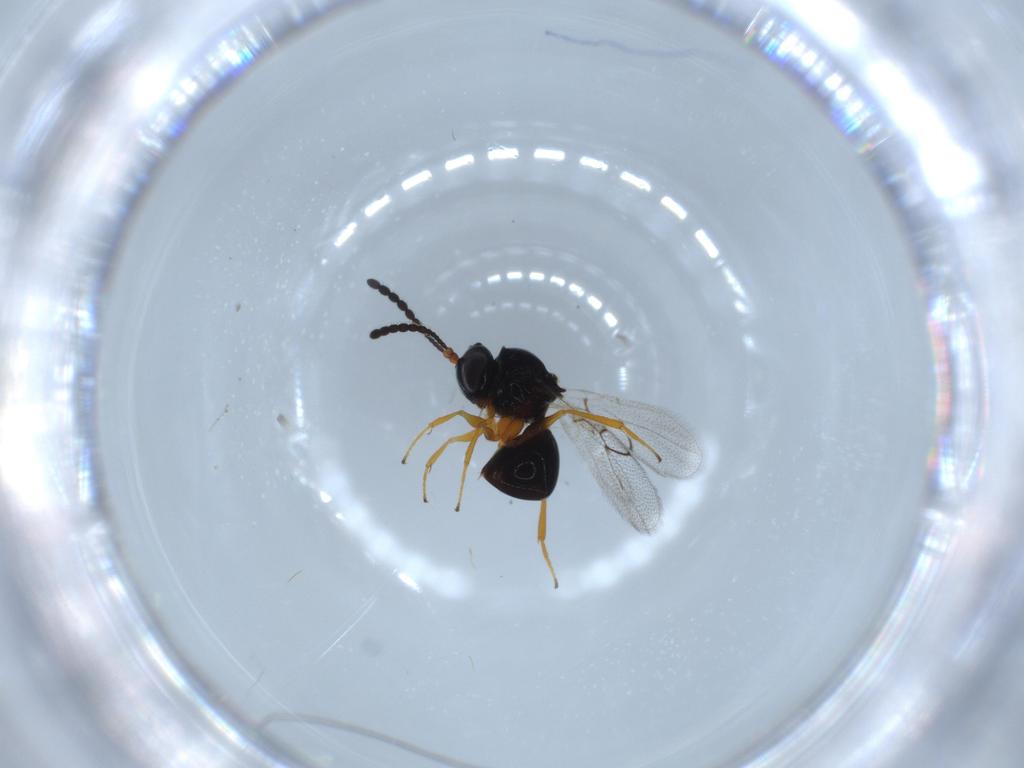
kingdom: Animalia
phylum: Arthropoda
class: Insecta
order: Hymenoptera
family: Figitidae
